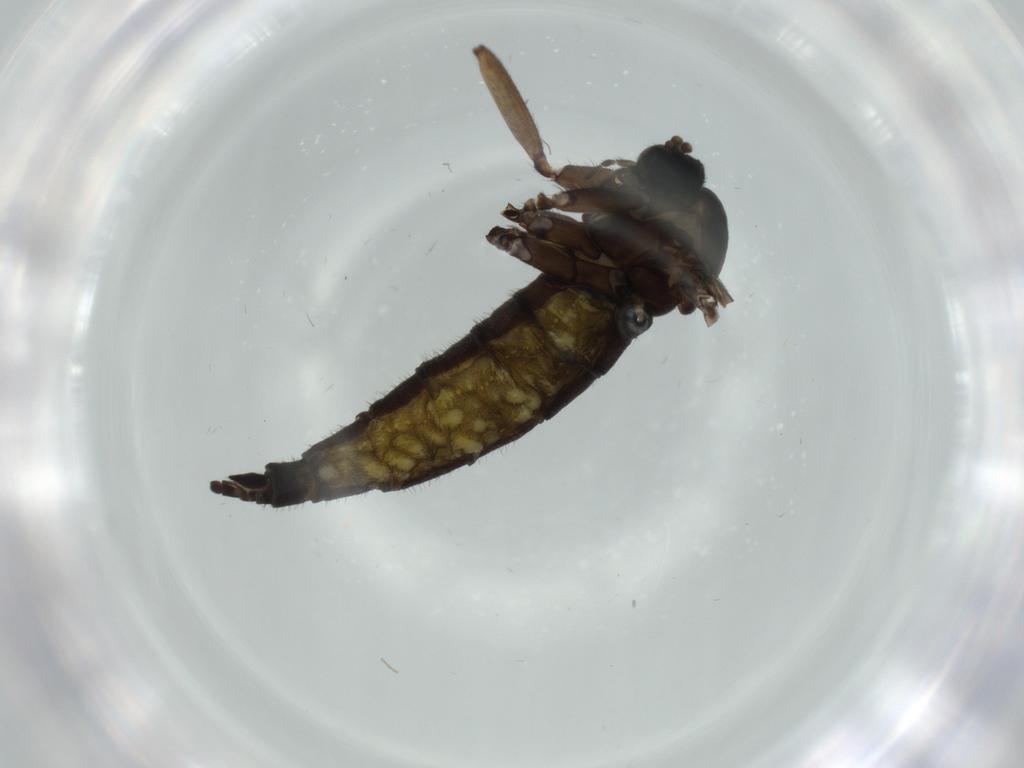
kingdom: Animalia
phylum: Arthropoda
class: Insecta
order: Diptera
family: Sciaridae
